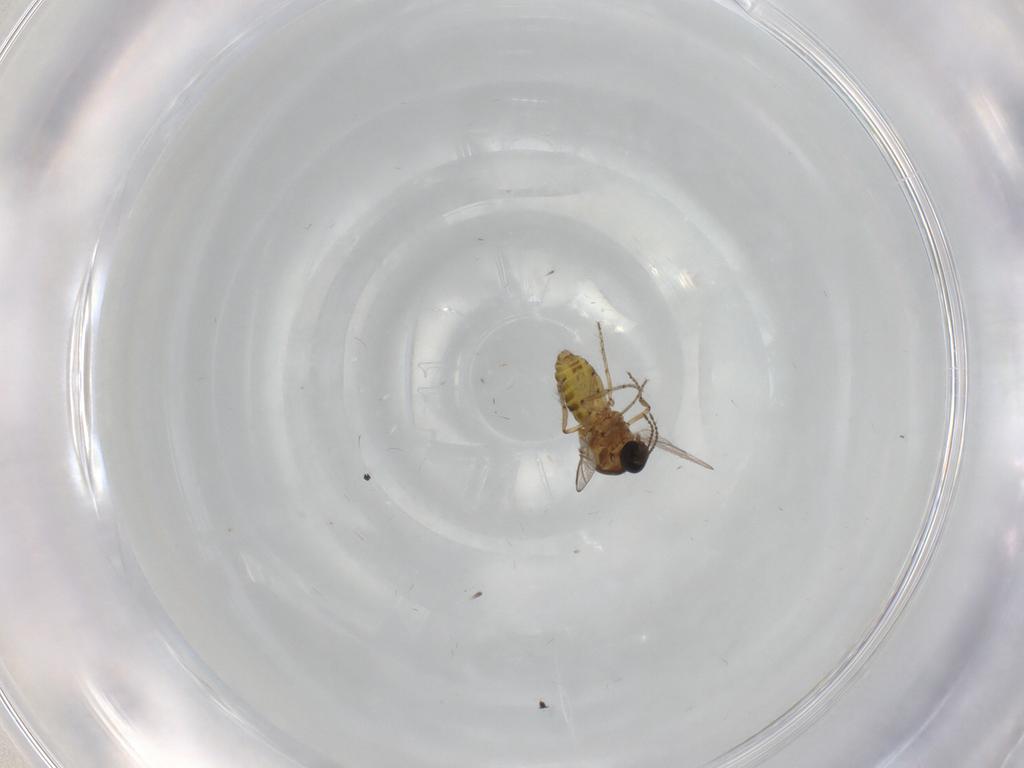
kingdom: Animalia
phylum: Arthropoda
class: Insecta
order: Diptera
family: Ceratopogonidae
